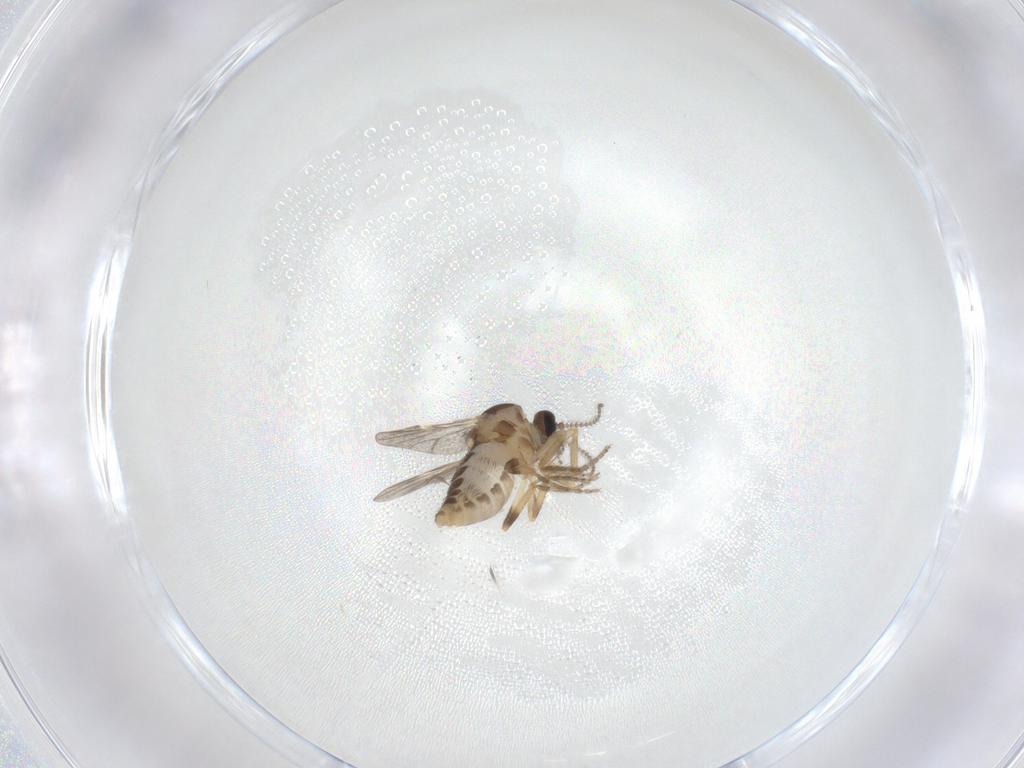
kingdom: Animalia
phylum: Arthropoda
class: Insecta
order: Diptera
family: Ceratopogonidae
